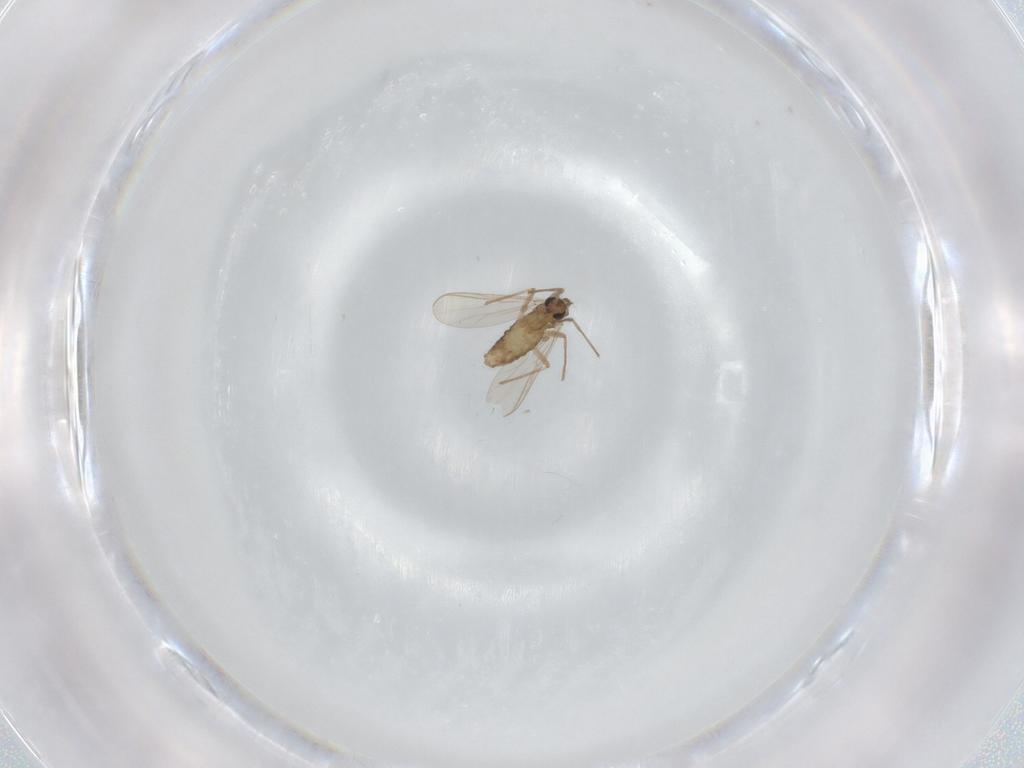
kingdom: Animalia
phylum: Arthropoda
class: Insecta
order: Diptera
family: Chironomidae
